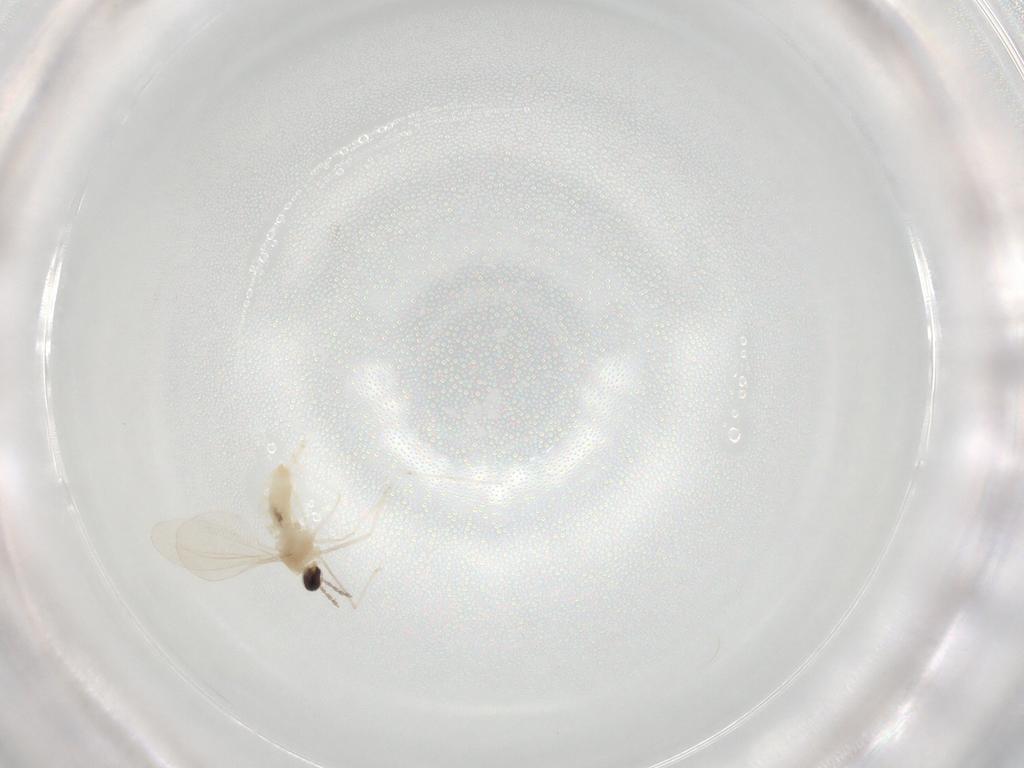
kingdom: Animalia
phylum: Arthropoda
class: Insecta
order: Diptera
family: Cecidomyiidae
